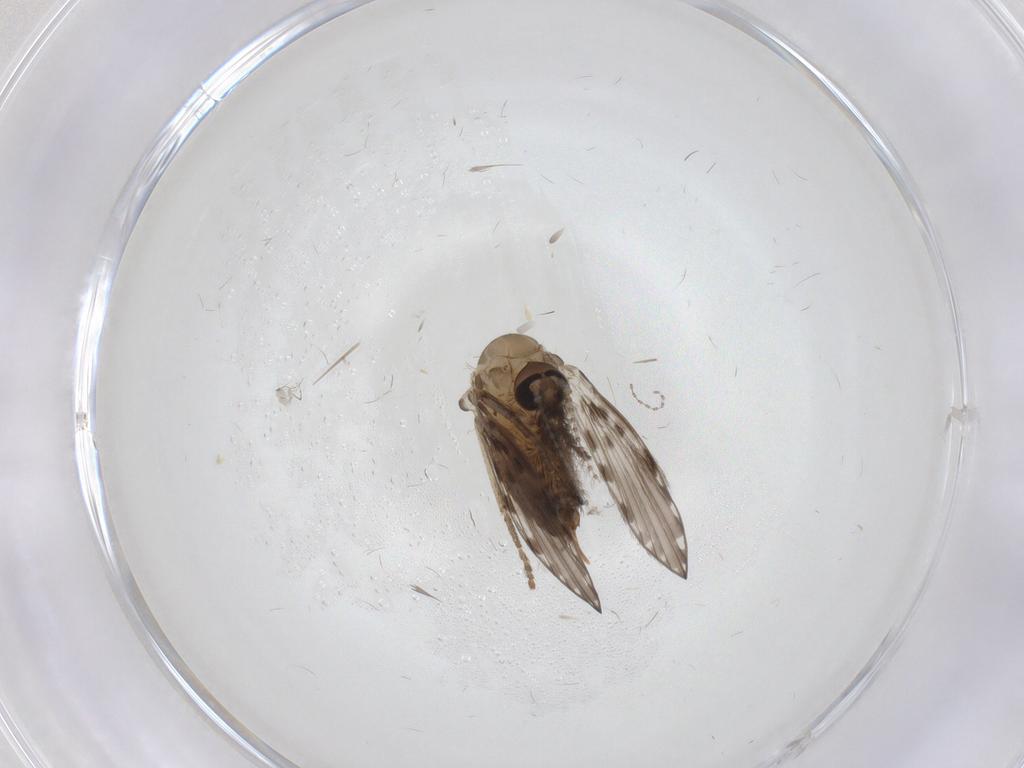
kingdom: Animalia
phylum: Arthropoda
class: Insecta
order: Diptera
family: Psychodidae
